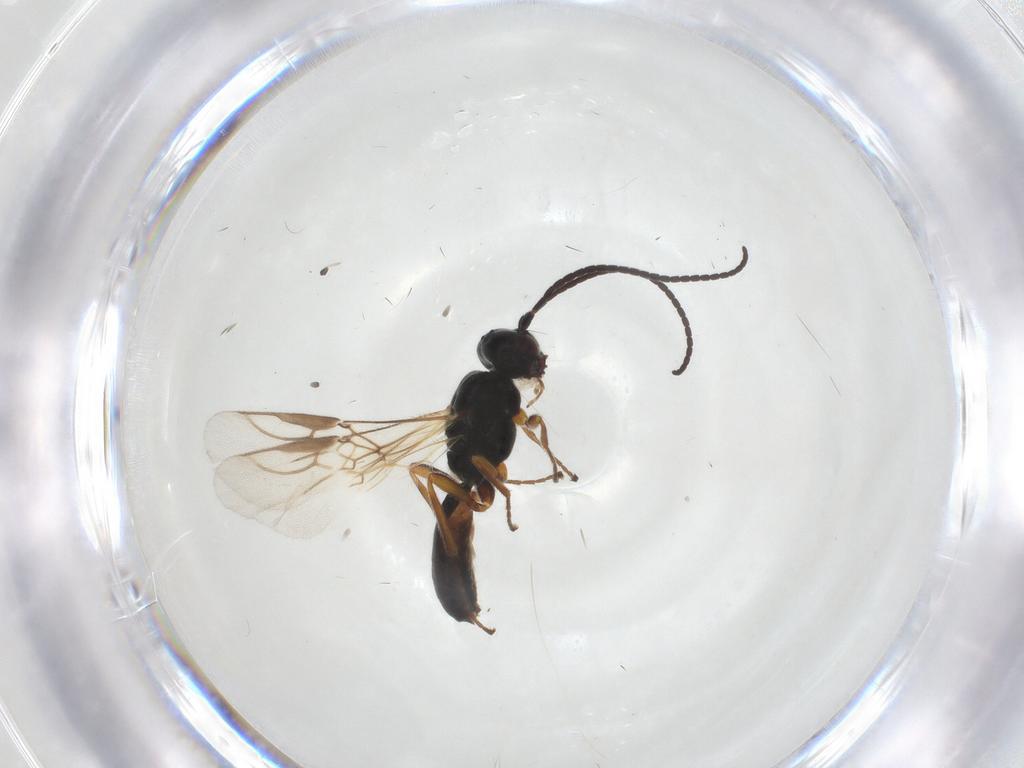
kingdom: Animalia
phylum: Arthropoda
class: Insecta
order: Hymenoptera
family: Braconidae
